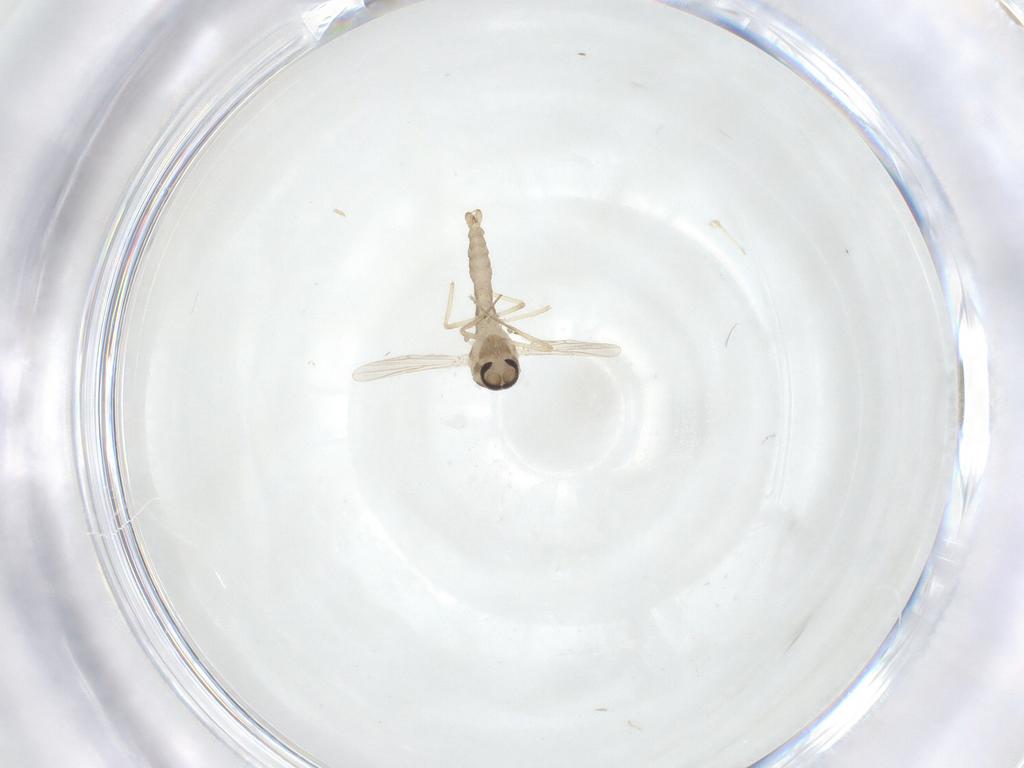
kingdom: Animalia
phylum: Arthropoda
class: Insecta
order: Diptera
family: Ceratopogonidae
